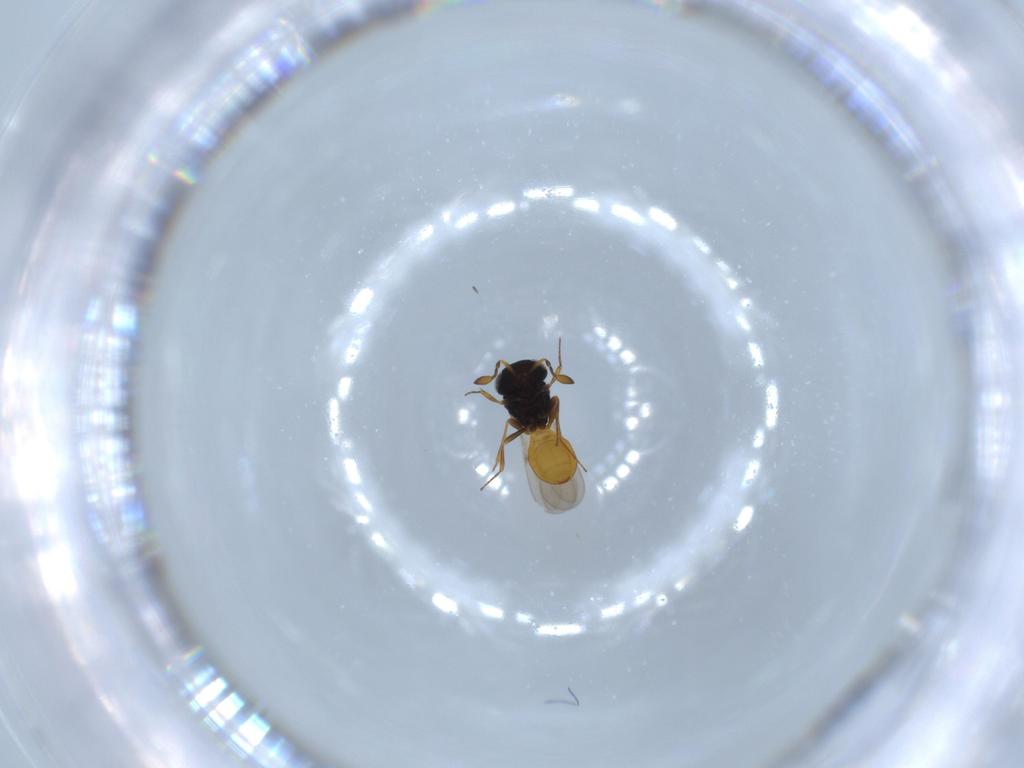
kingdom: Animalia
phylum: Arthropoda
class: Insecta
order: Hymenoptera
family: Scelionidae
